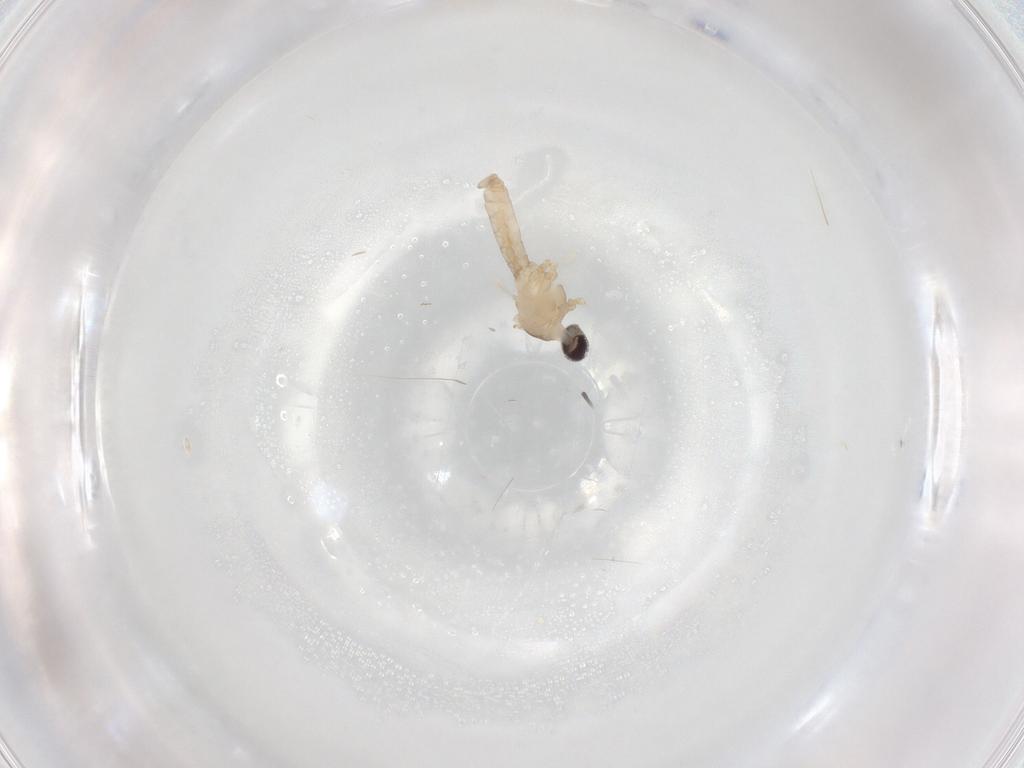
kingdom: Animalia
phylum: Arthropoda
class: Insecta
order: Diptera
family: Cecidomyiidae
